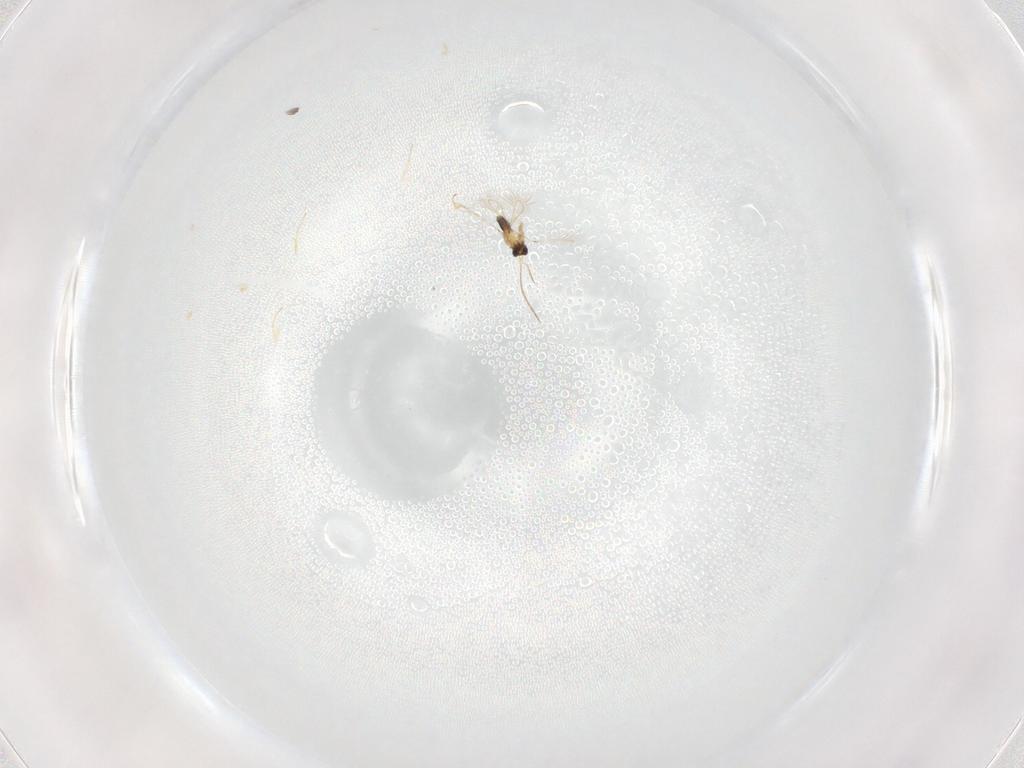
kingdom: Animalia
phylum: Arthropoda
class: Insecta
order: Hymenoptera
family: Mymaridae
